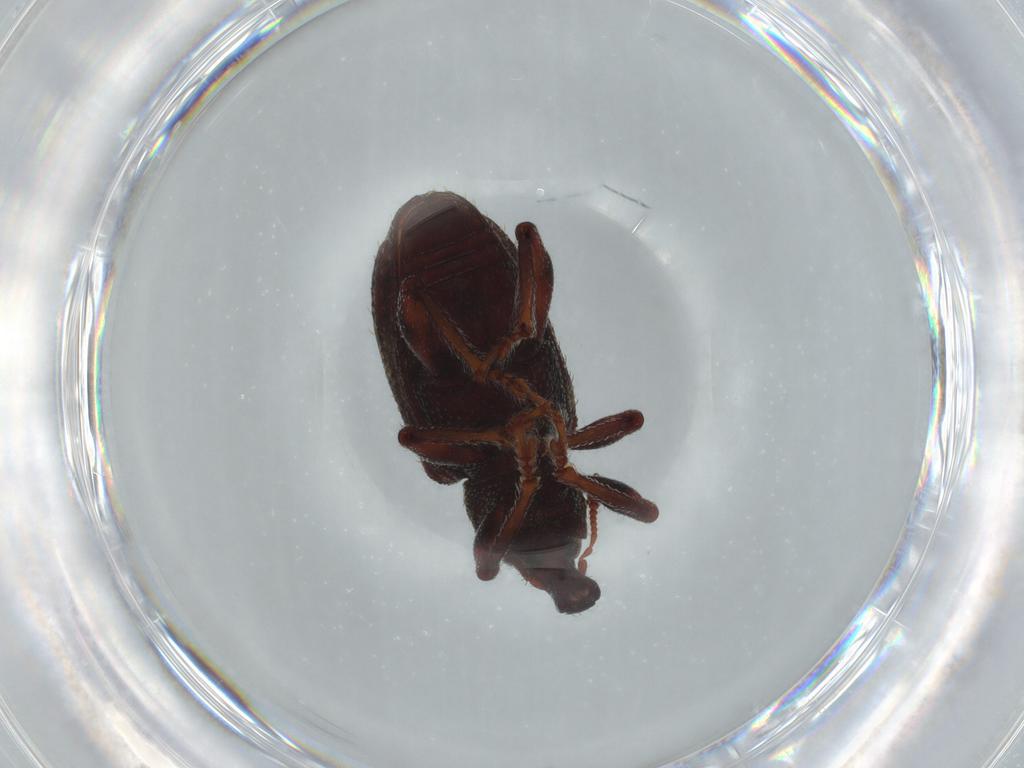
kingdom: Animalia
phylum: Arthropoda
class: Insecta
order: Coleoptera
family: Curculionidae
